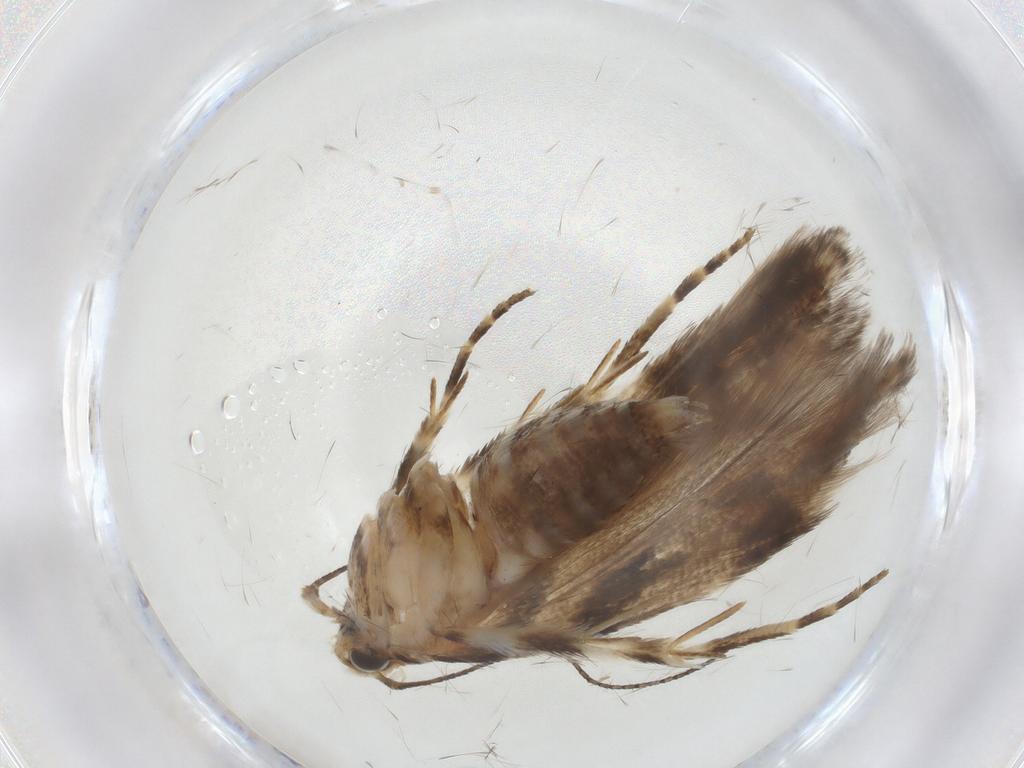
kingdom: Animalia
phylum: Arthropoda
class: Insecta
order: Lepidoptera
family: Gelechiidae
